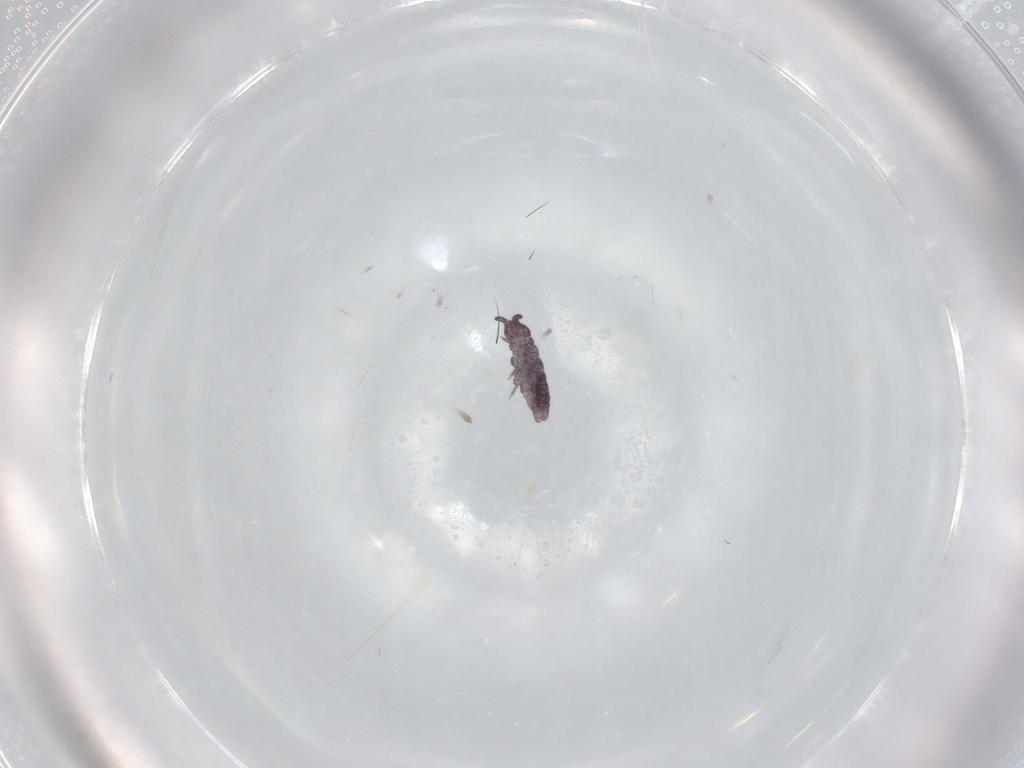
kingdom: Animalia
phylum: Arthropoda
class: Collembola
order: Poduromorpha
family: Brachystomellidae
